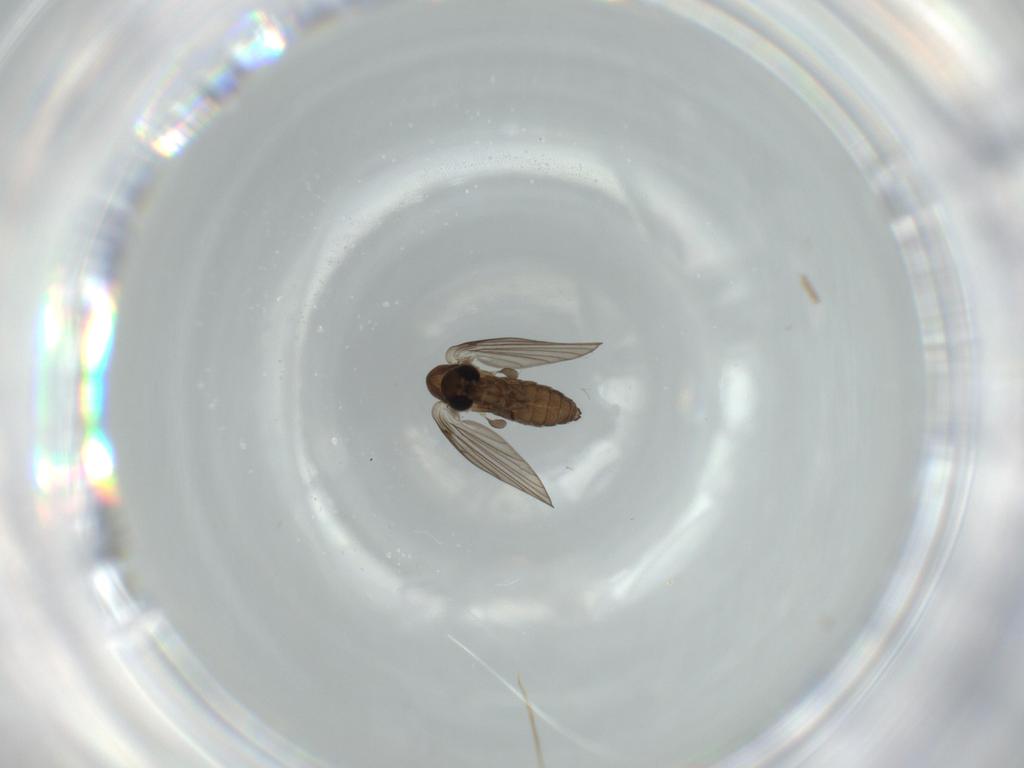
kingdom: Animalia
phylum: Arthropoda
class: Insecta
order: Diptera
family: Psychodidae
